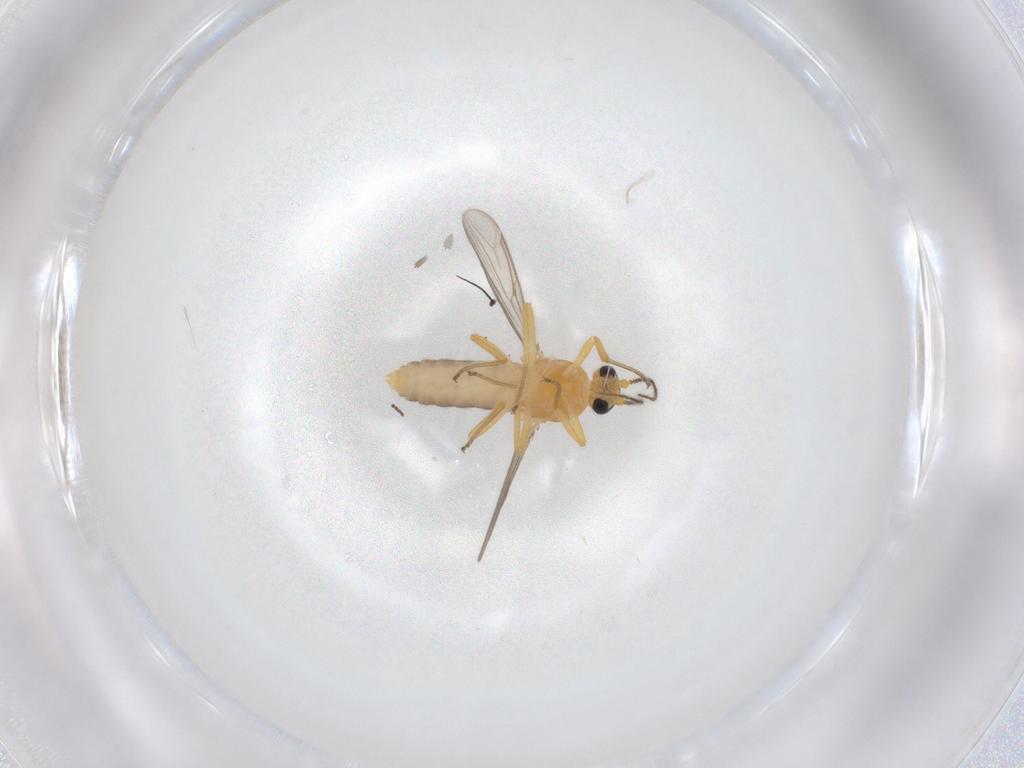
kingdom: Animalia
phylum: Arthropoda
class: Insecta
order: Diptera
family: Ceratopogonidae
